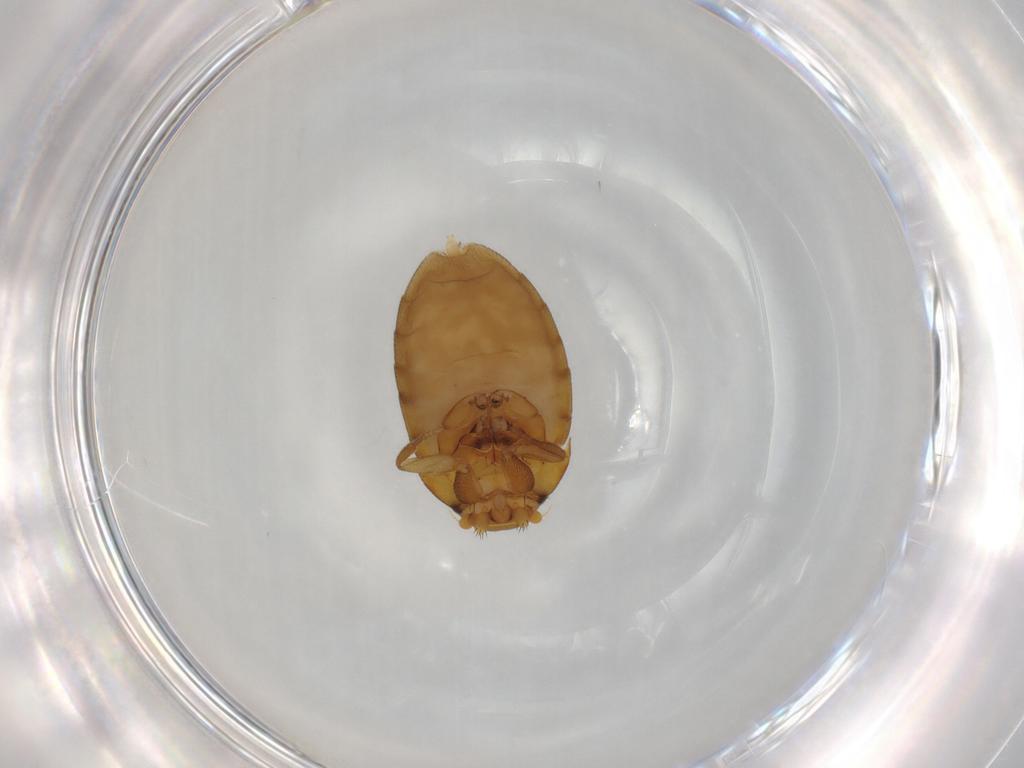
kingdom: Animalia
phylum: Arthropoda
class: Insecta
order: Diptera
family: Phoridae
